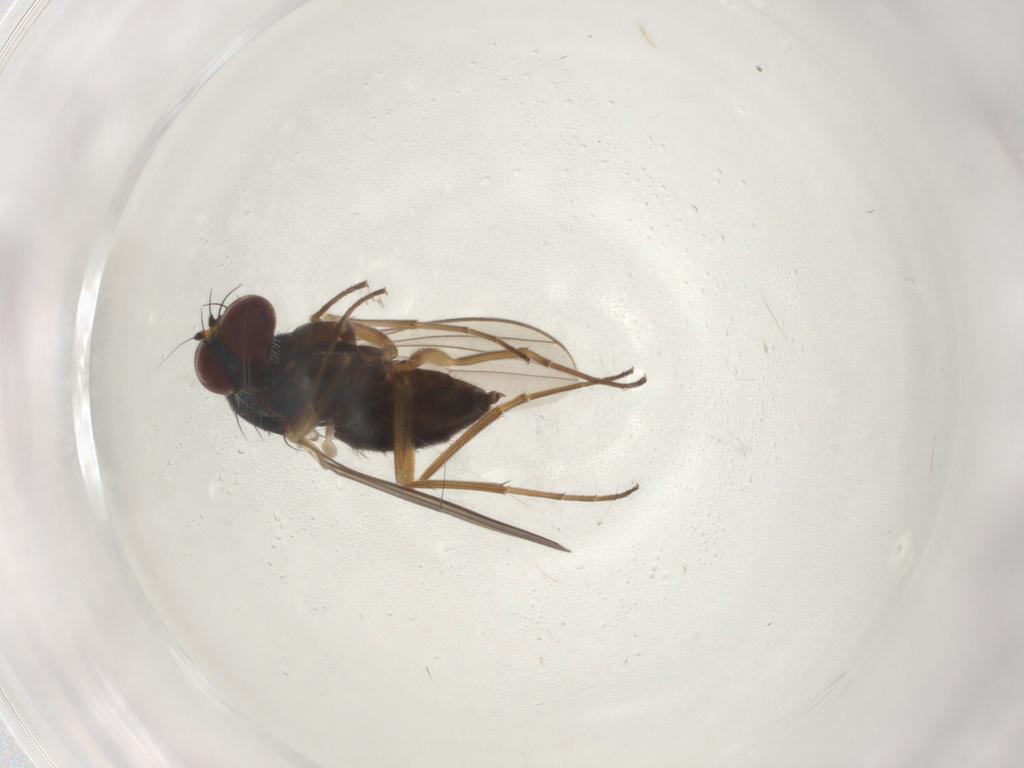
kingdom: Animalia
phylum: Arthropoda
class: Insecta
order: Diptera
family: Dolichopodidae
